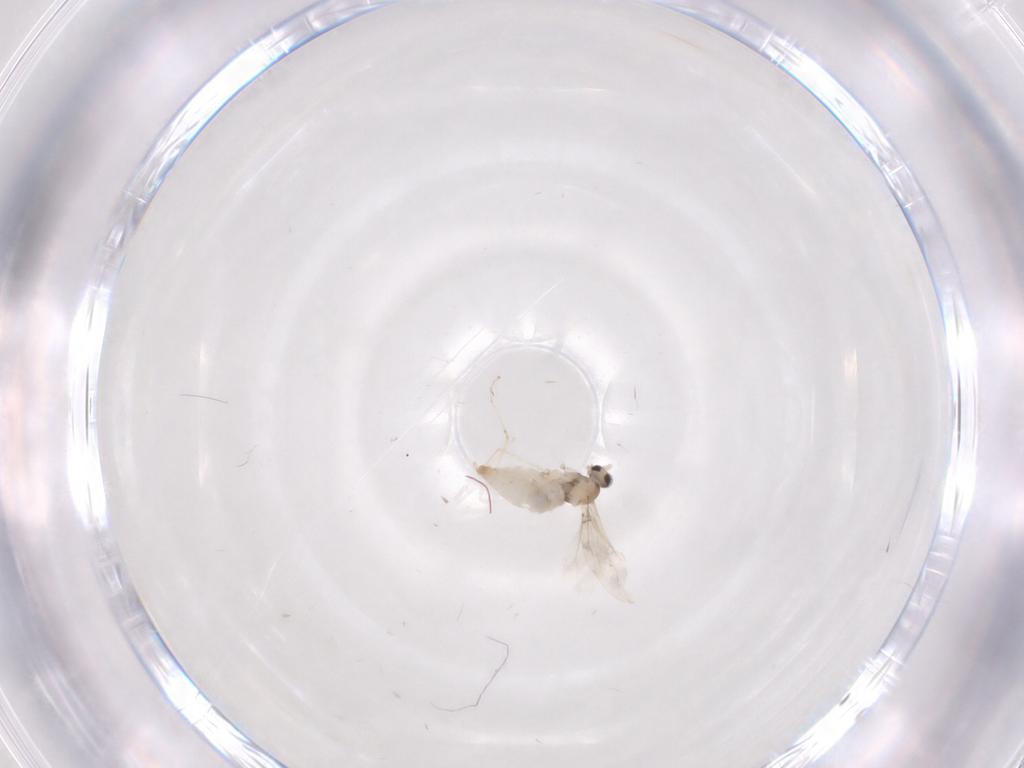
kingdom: Animalia
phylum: Arthropoda
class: Insecta
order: Diptera
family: Cecidomyiidae
